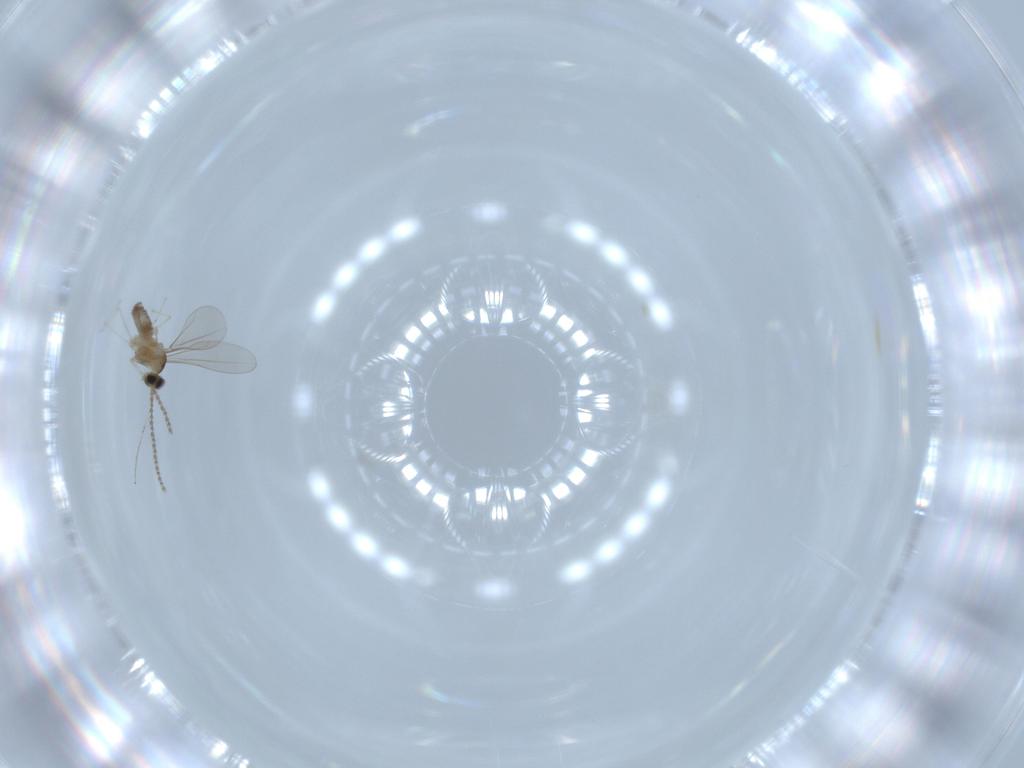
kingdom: Animalia
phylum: Arthropoda
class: Insecta
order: Diptera
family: Cecidomyiidae
